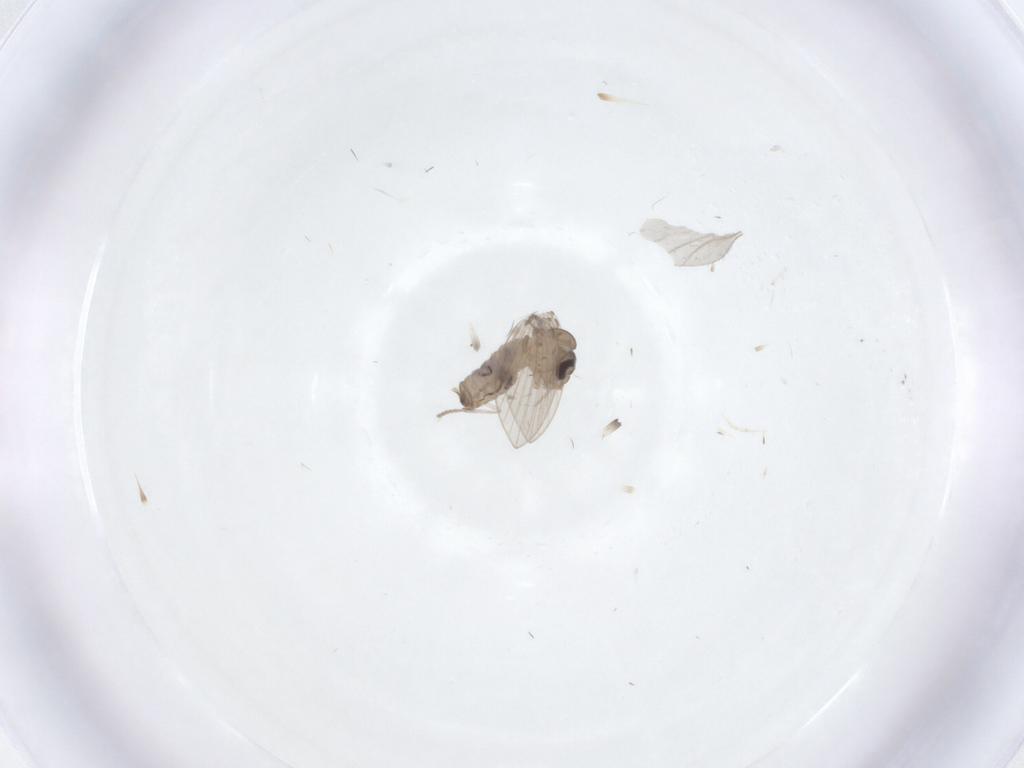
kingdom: Animalia
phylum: Arthropoda
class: Insecta
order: Diptera
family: Psychodidae
